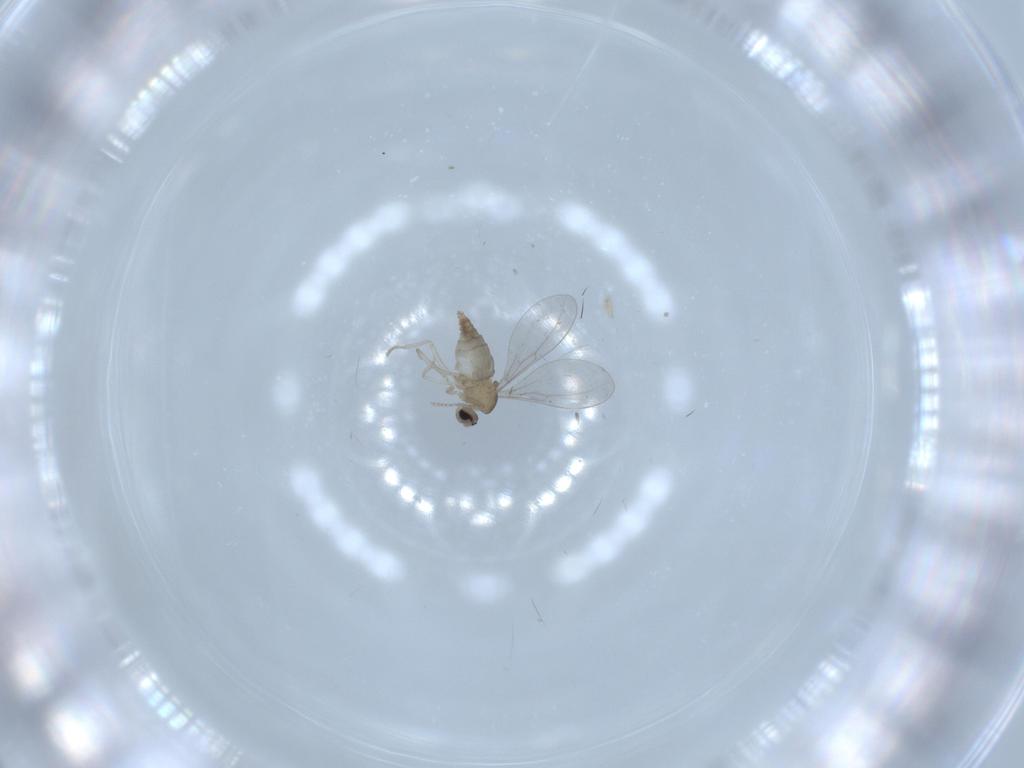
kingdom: Animalia
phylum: Arthropoda
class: Insecta
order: Diptera
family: Cecidomyiidae
